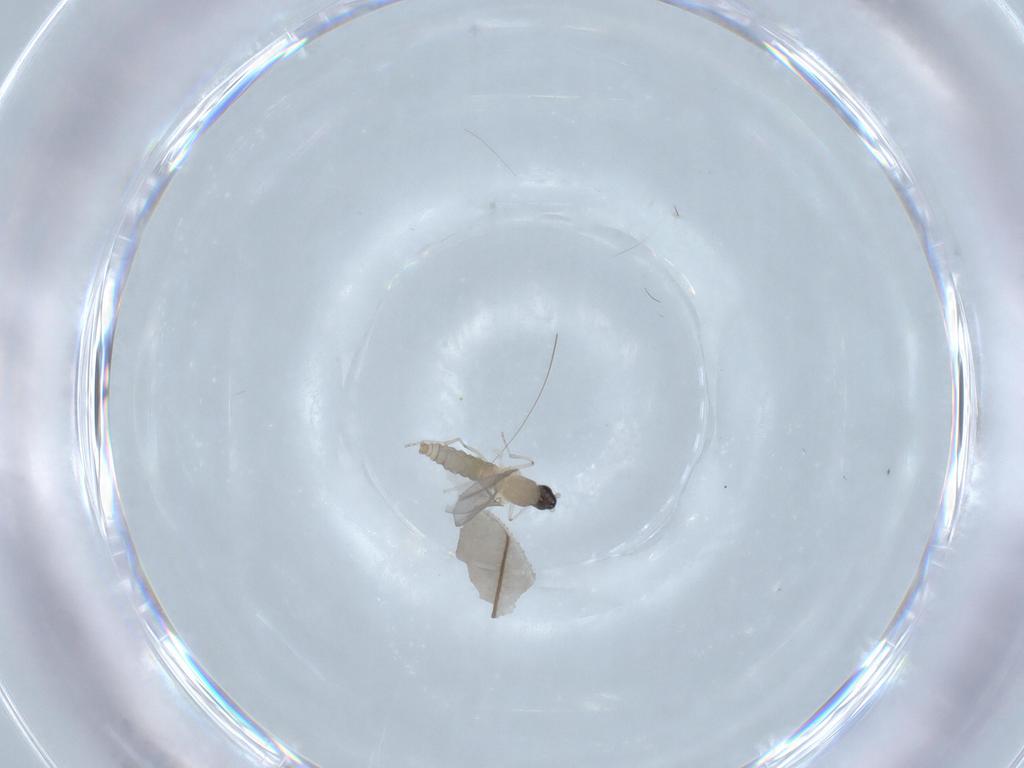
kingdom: Animalia
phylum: Arthropoda
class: Insecta
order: Diptera
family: Cecidomyiidae
